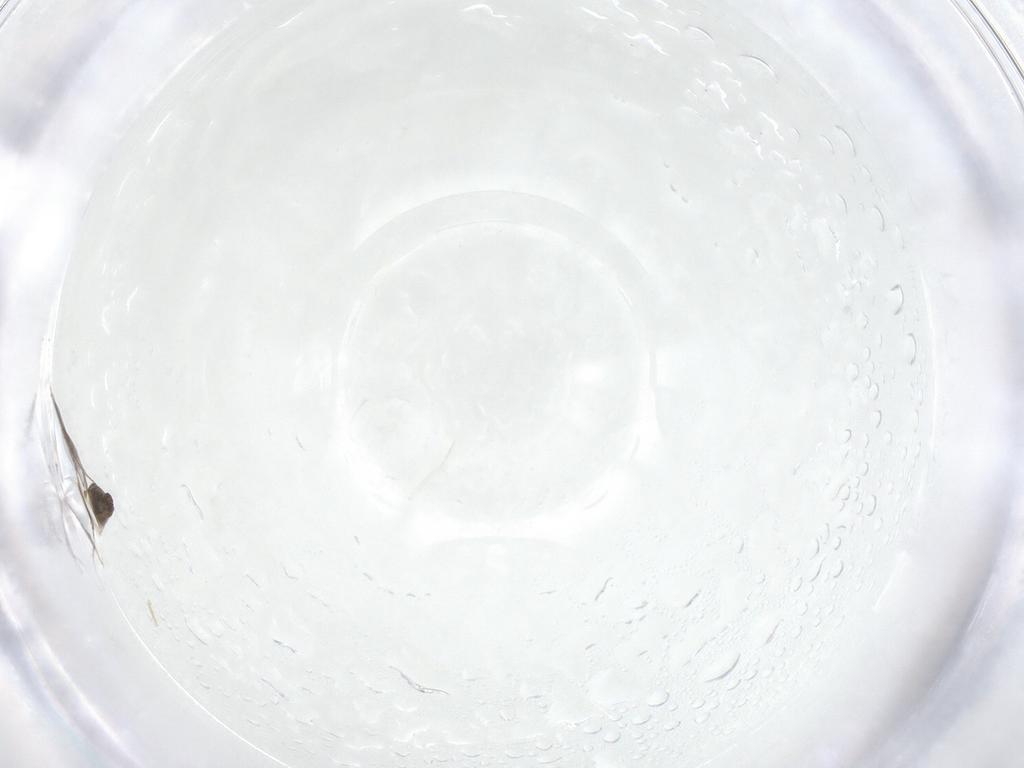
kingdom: Animalia
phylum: Arthropoda
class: Insecta
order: Diptera
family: Cecidomyiidae
